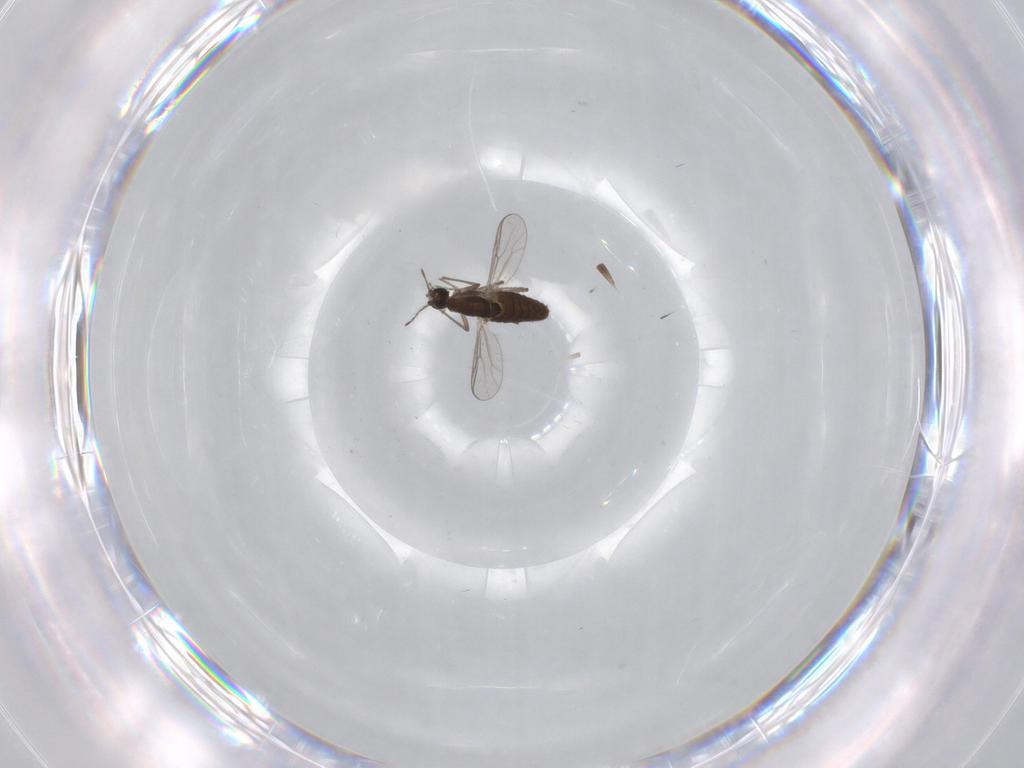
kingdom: Animalia
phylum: Arthropoda
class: Insecta
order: Diptera
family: Chironomidae
